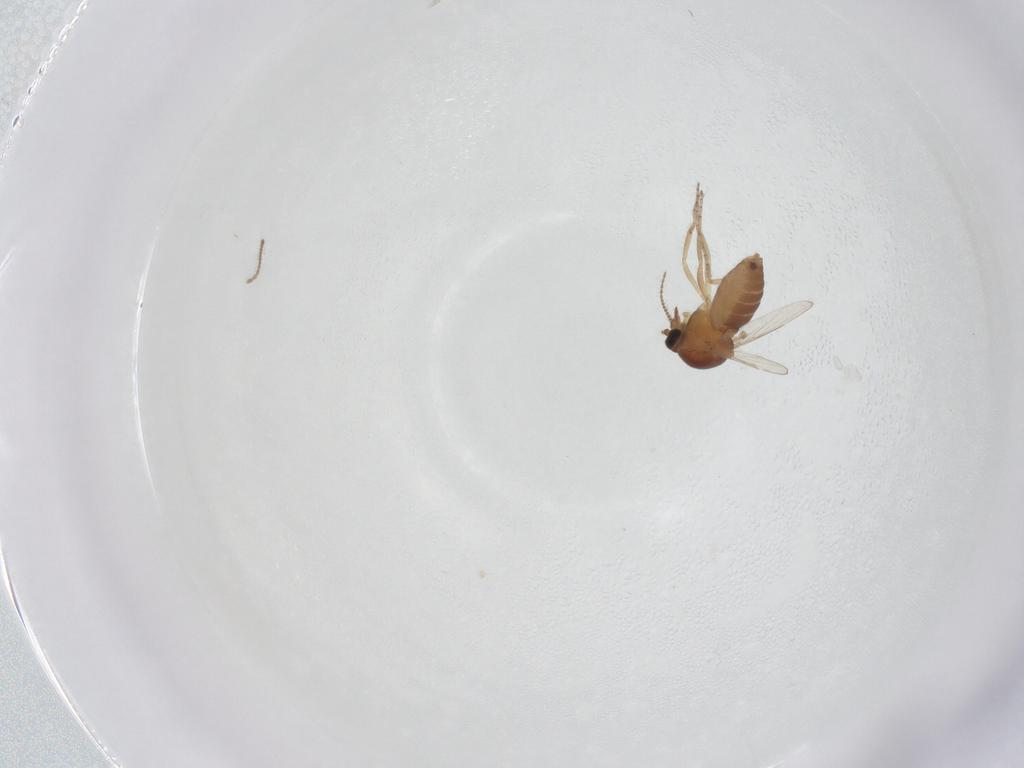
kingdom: Animalia
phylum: Arthropoda
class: Insecta
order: Diptera
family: Ceratopogonidae
